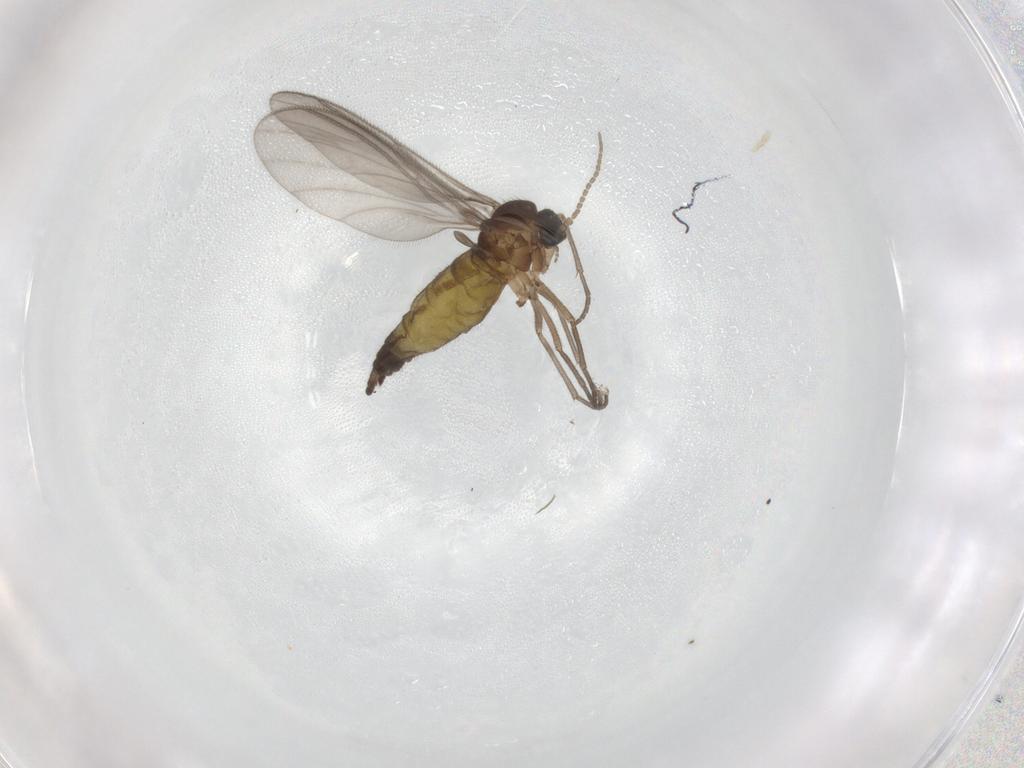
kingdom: Animalia
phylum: Arthropoda
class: Insecta
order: Diptera
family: Sciaridae
